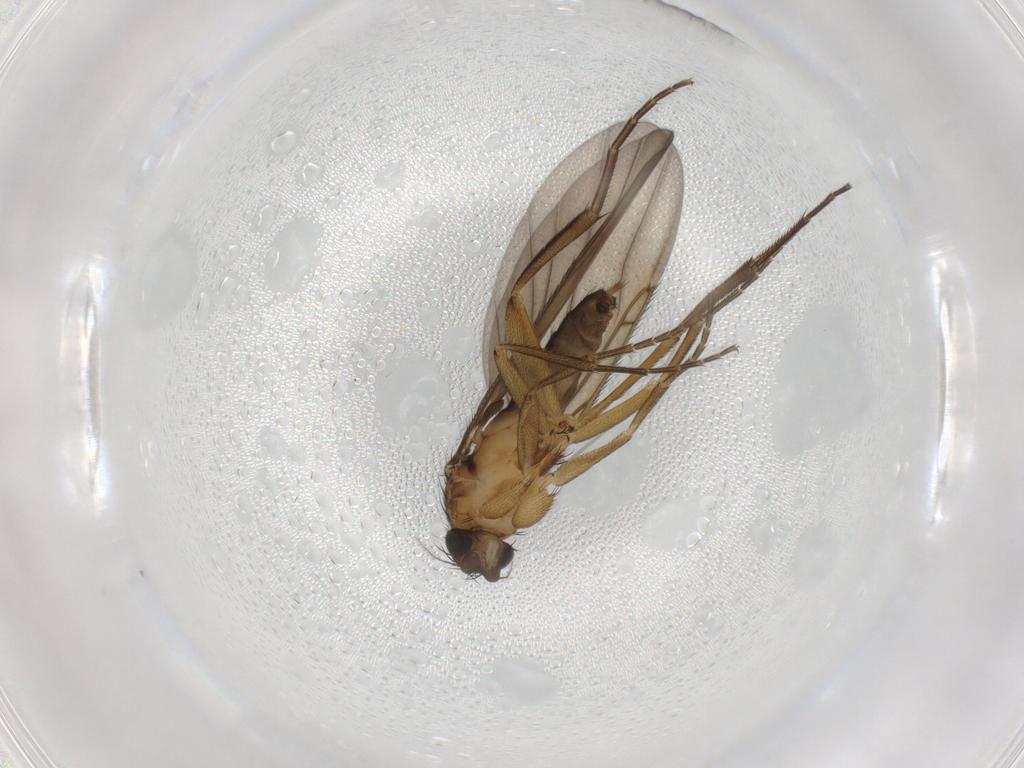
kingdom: Animalia
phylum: Arthropoda
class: Insecta
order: Diptera
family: Phoridae
